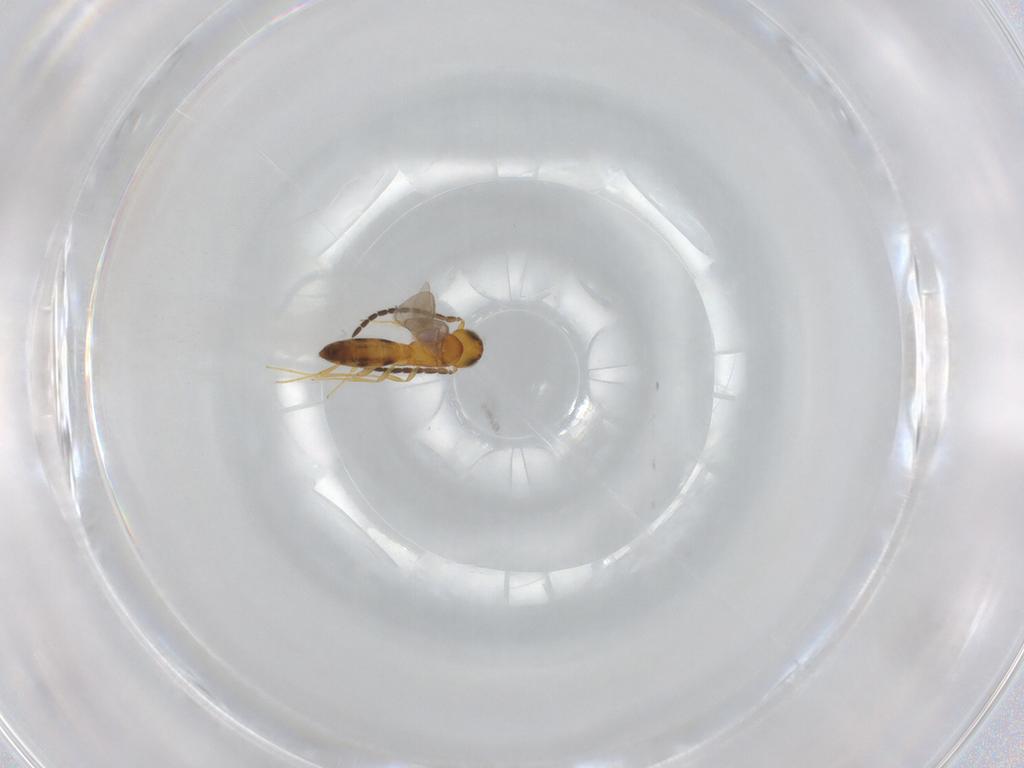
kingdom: Animalia
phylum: Arthropoda
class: Insecta
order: Hymenoptera
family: Scelionidae
